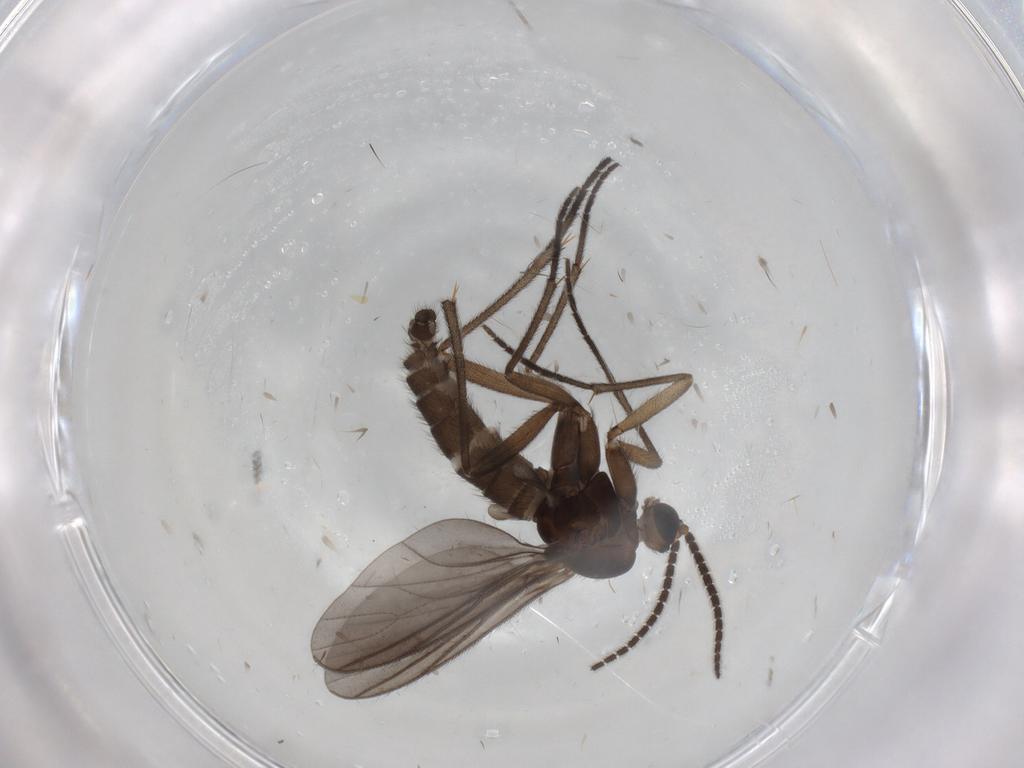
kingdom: Animalia
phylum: Arthropoda
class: Insecta
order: Diptera
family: Sciaridae
